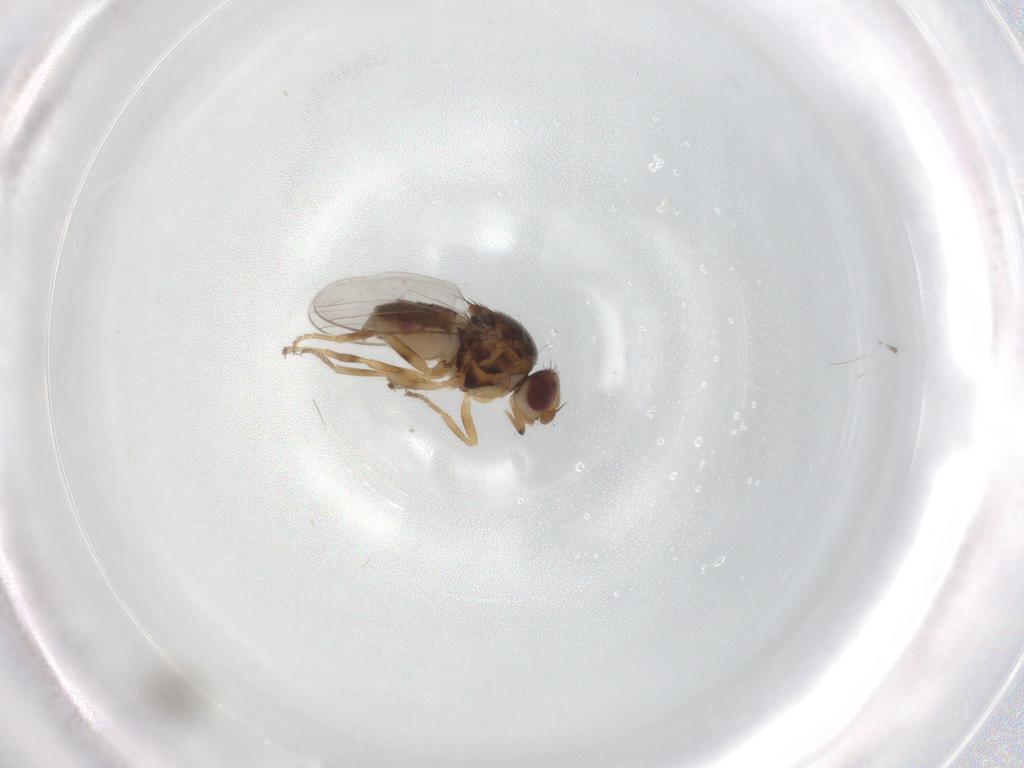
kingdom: Animalia
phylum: Arthropoda
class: Insecta
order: Diptera
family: Chloropidae
